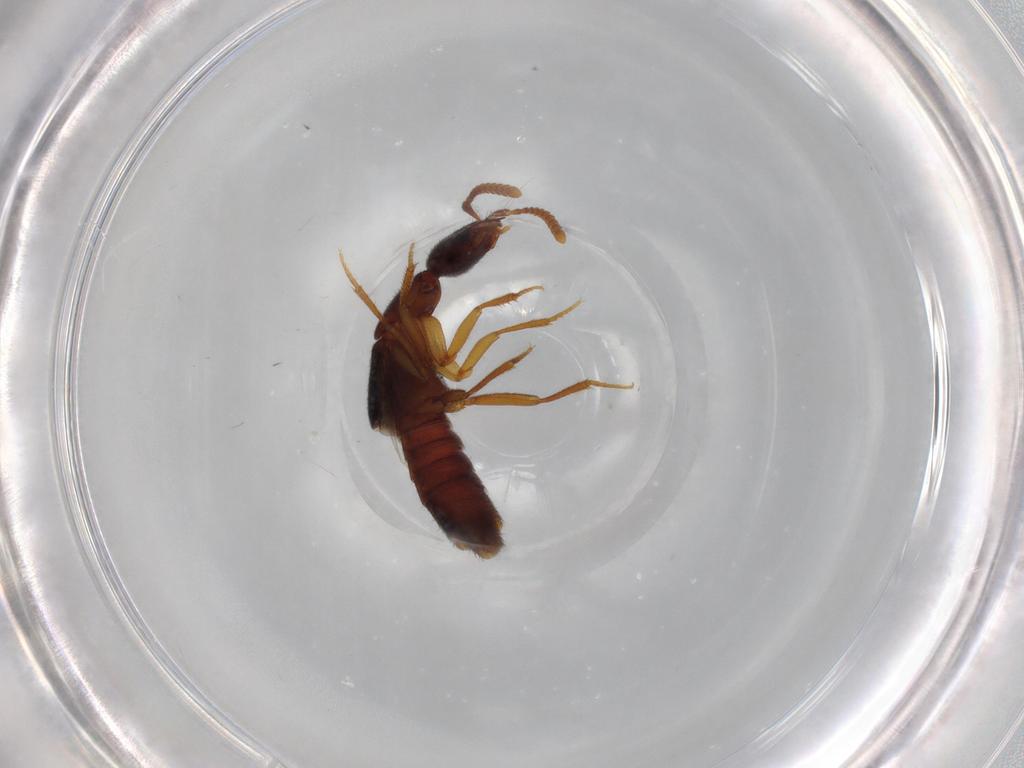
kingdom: Animalia
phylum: Arthropoda
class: Insecta
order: Coleoptera
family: Staphylinidae
